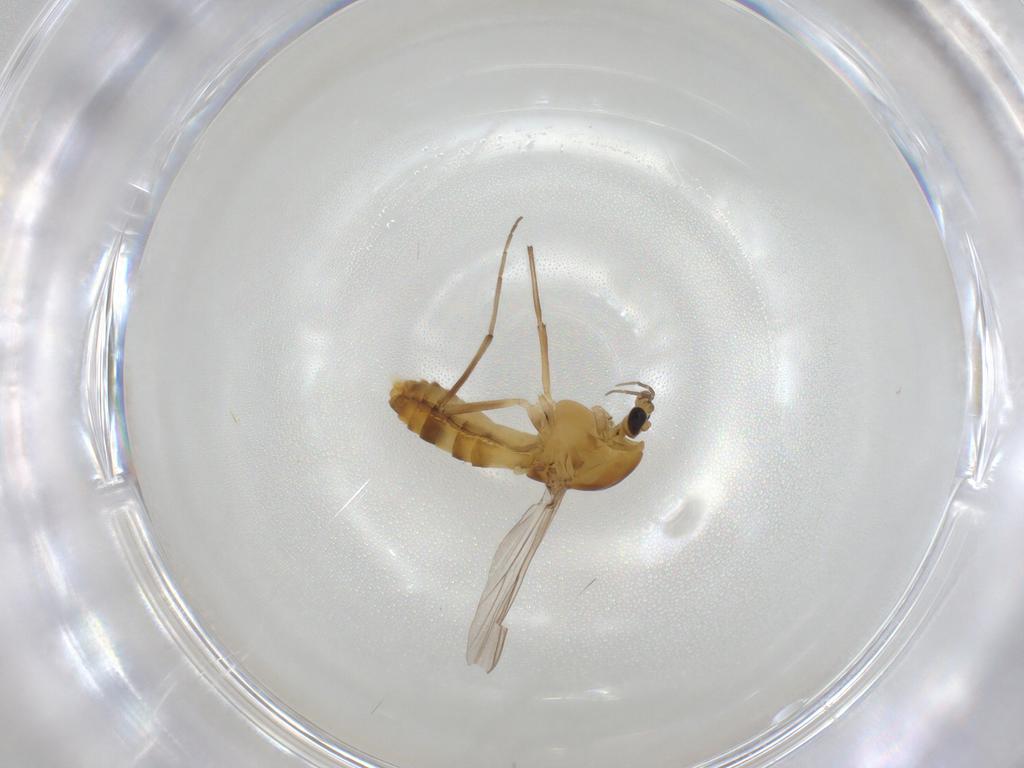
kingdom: Animalia
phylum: Arthropoda
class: Insecta
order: Diptera
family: Chironomidae
